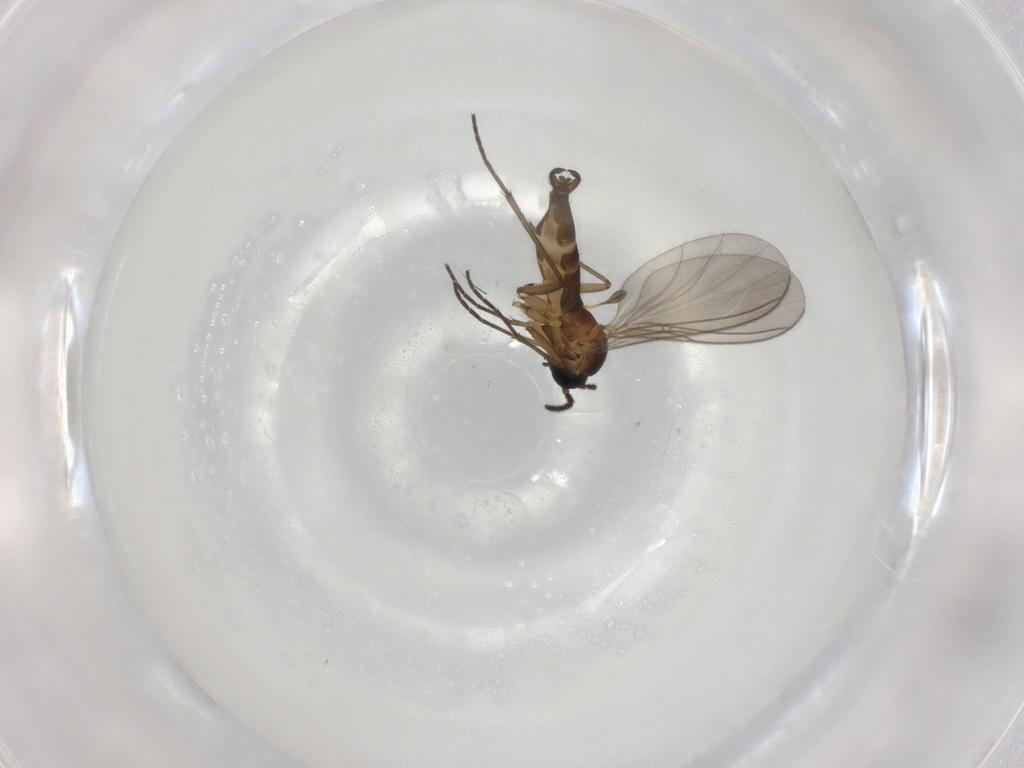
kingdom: Animalia
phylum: Arthropoda
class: Insecta
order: Diptera
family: Sciaridae
